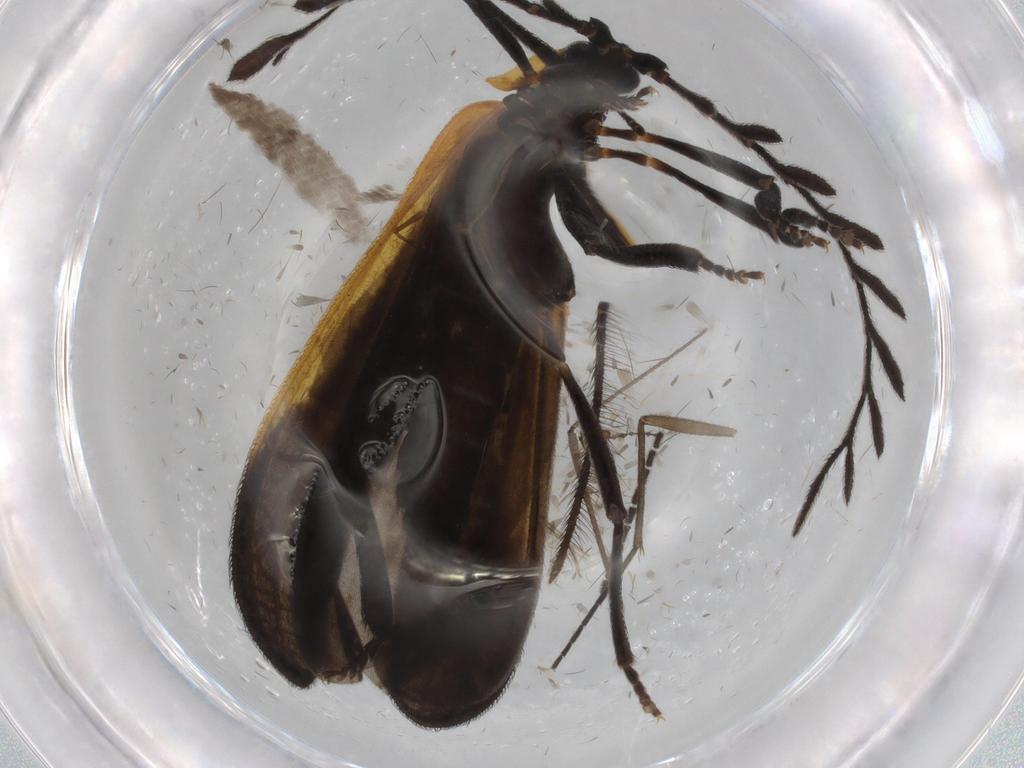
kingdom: Animalia
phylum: Arthropoda
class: Insecta
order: Coleoptera
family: Lycidae
